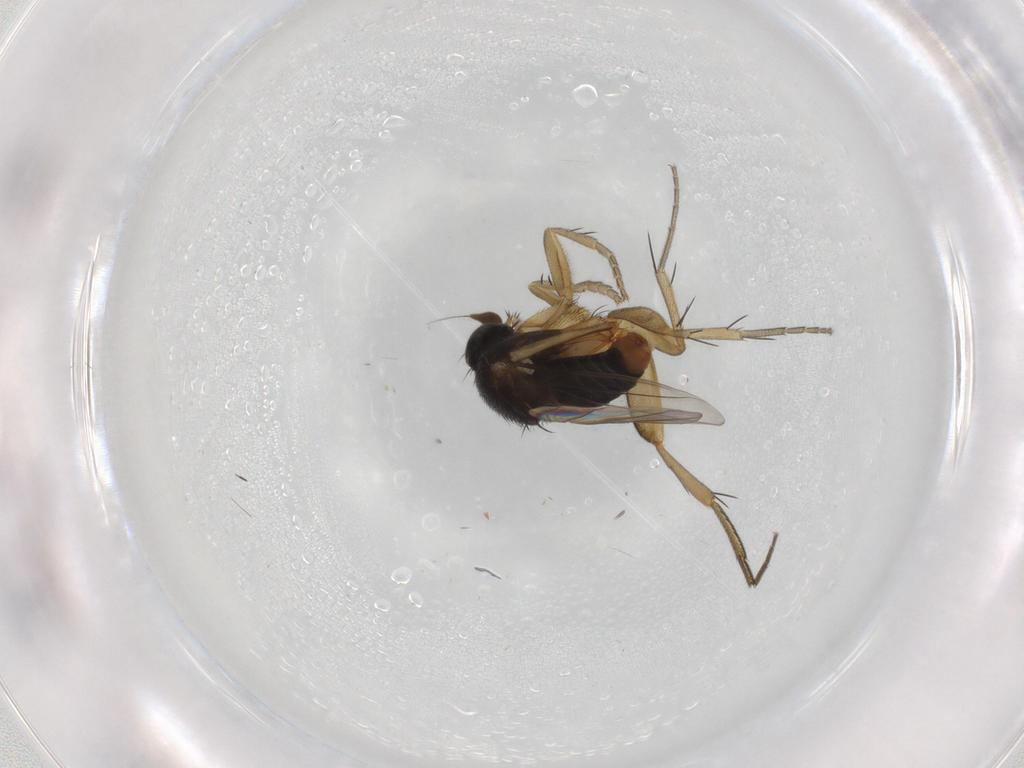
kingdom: Animalia
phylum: Arthropoda
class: Insecta
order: Diptera
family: Phoridae
